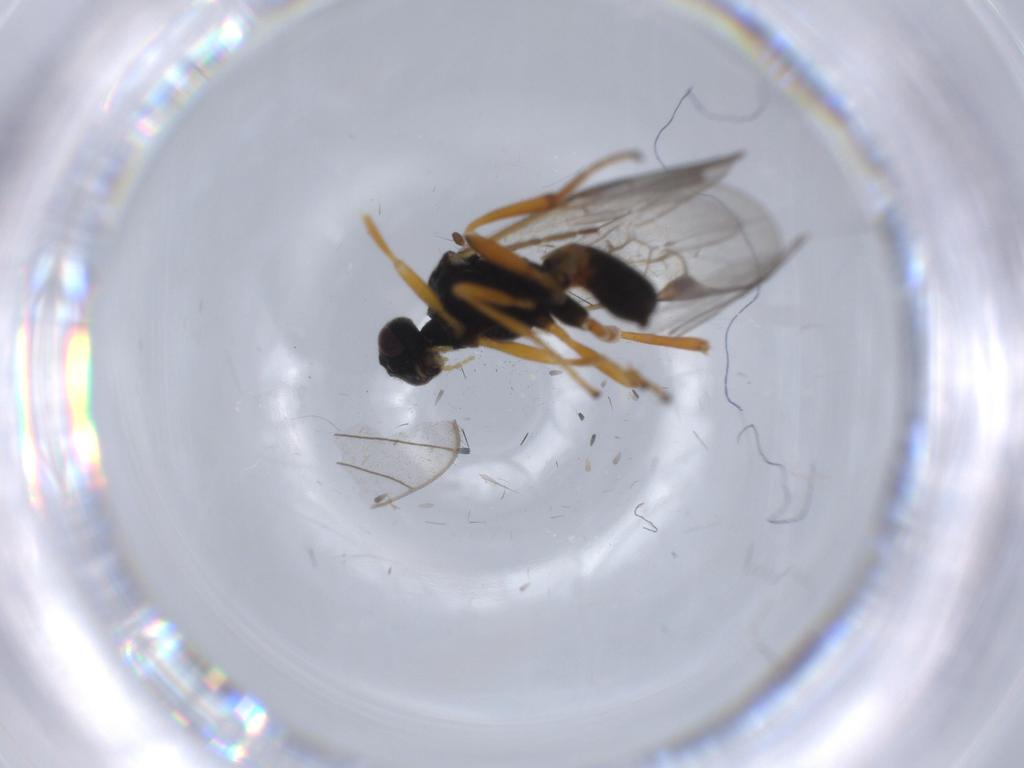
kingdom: Animalia
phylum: Arthropoda
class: Insecta
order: Hymenoptera
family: Braconidae
